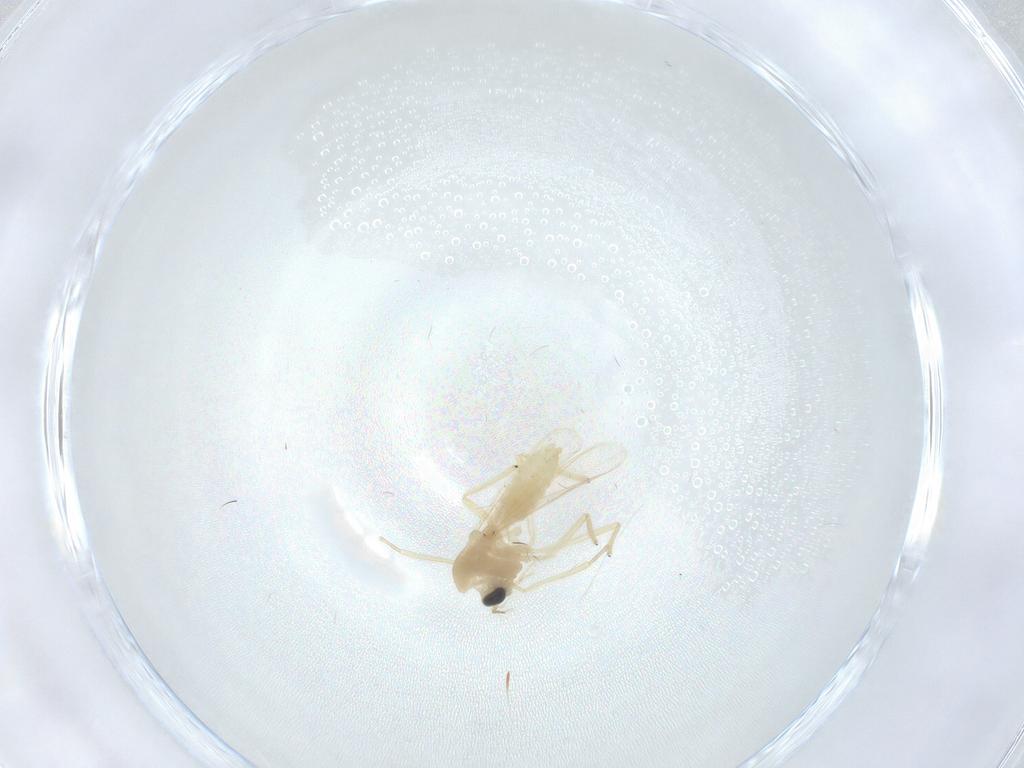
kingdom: Animalia
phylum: Arthropoda
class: Insecta
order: Diptera
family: Chironomidae
